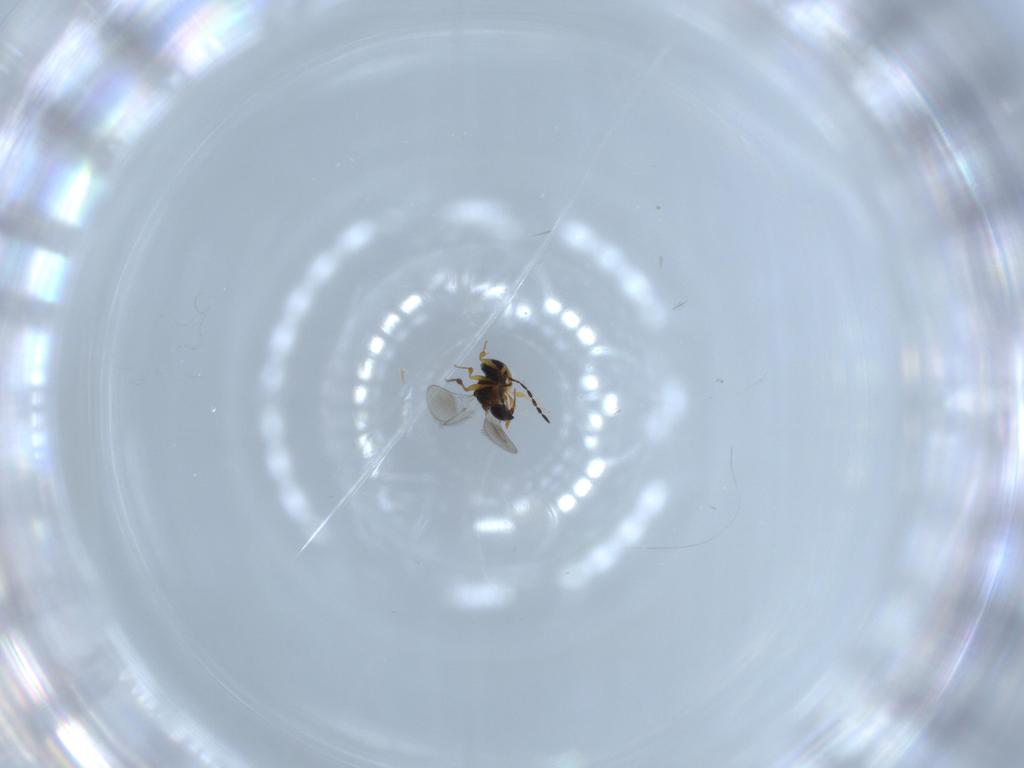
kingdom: Animalia
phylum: Arthropoda
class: Insecta
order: Hymenoptera
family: Platygastridae
